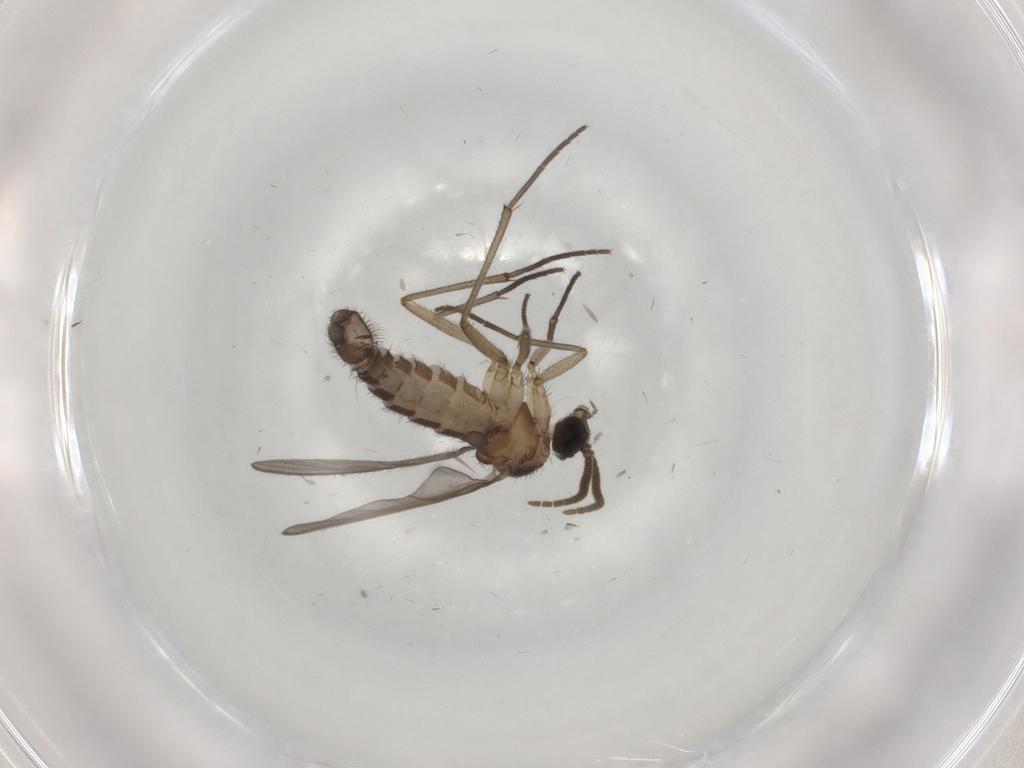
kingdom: Animalia
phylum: Arthropoda
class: Insecta
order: Diptera
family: Sciaridae
